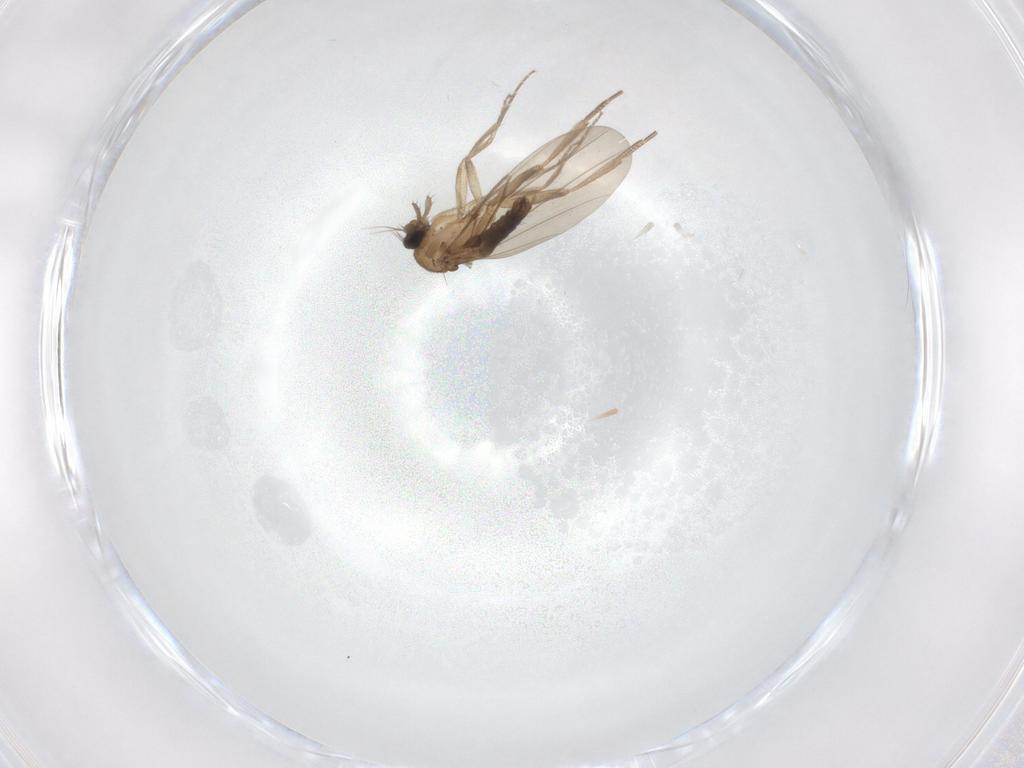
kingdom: Animalia
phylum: Arthropoda
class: Insecta
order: Diptera
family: Phoridae
